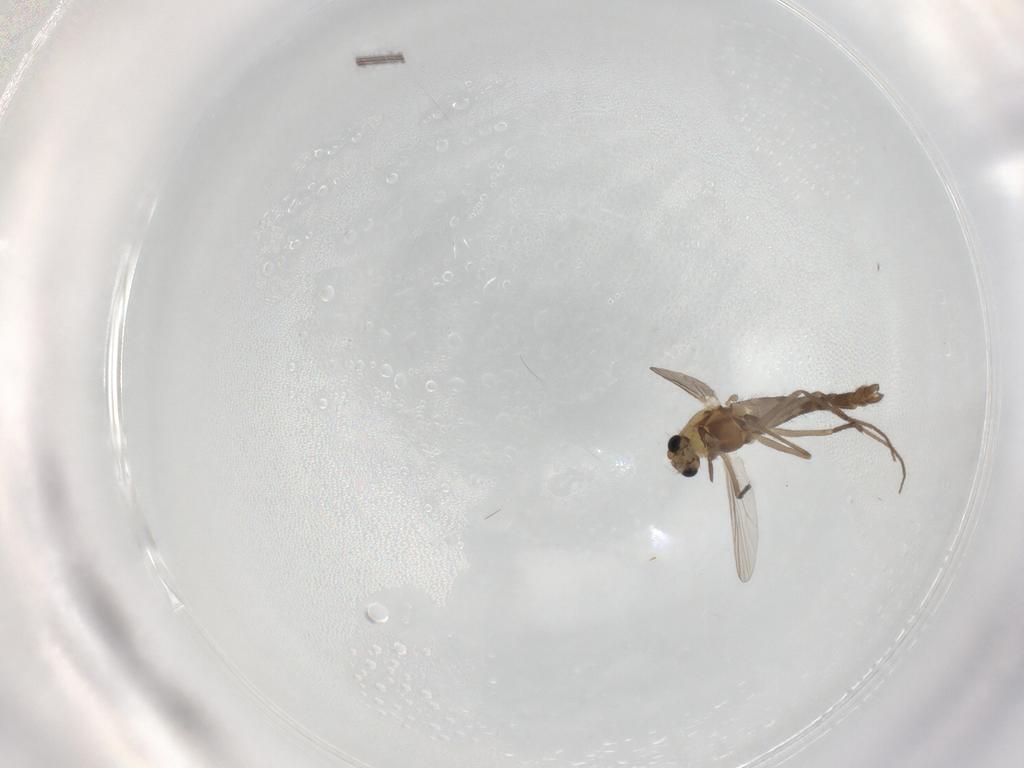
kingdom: Animalia
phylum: Arthropoda
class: Insecta
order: Diptera
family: Chironomidae
